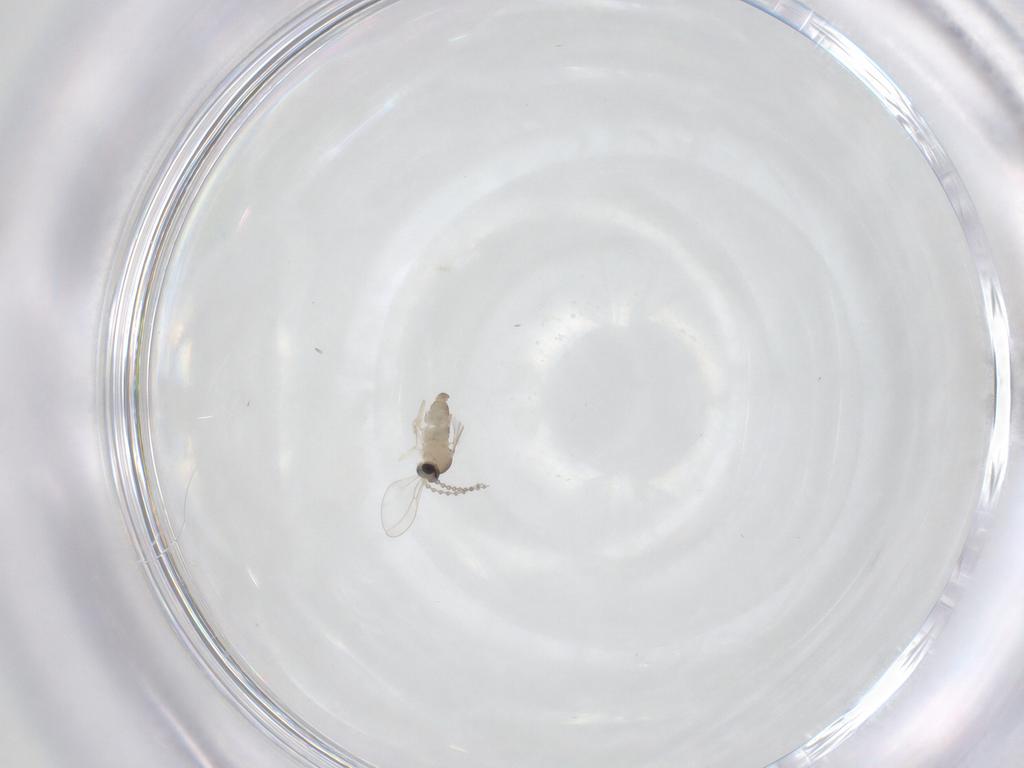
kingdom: Animalia
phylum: Arthropoda
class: Insecta
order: Diptera
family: Cecidomyiidae
